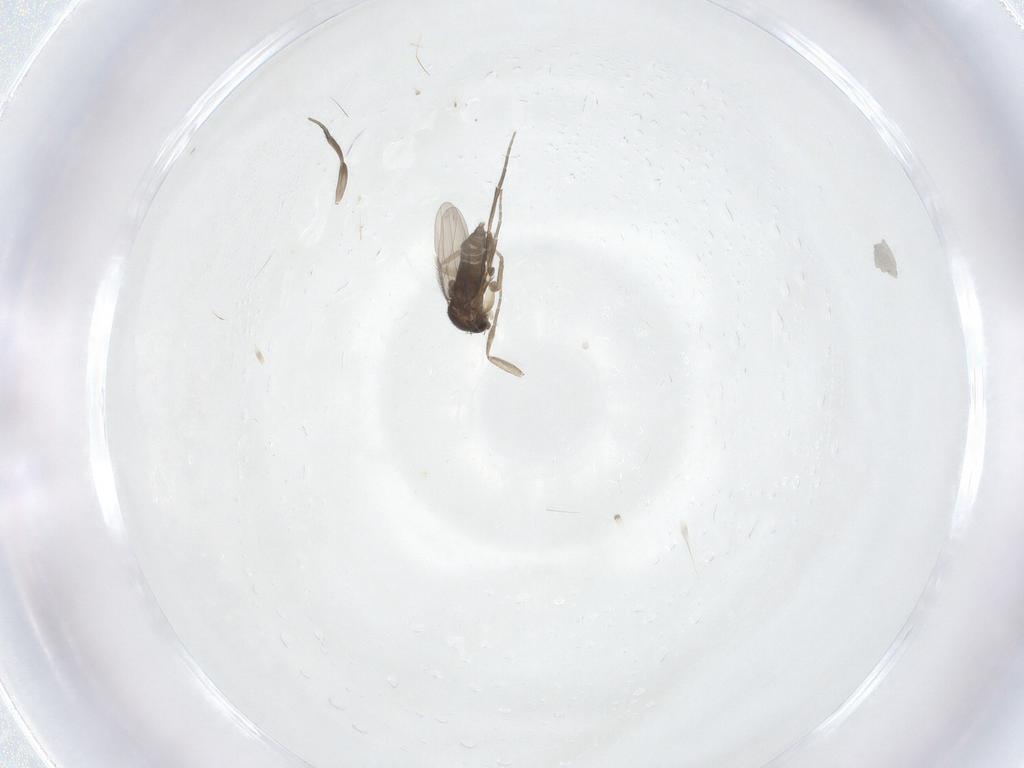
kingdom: Animalia
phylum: Arthropoda
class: Insecta
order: Diptera
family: Phoridae
